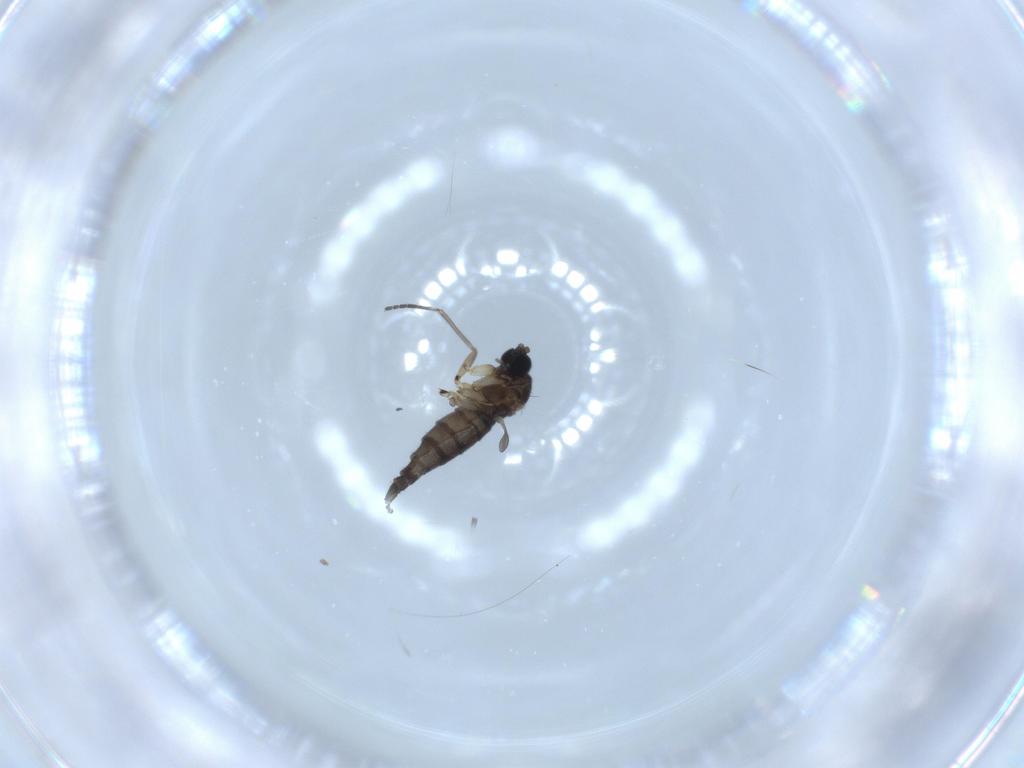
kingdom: Animalia
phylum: Arthropoda
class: Insecta
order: Diptera
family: Sciaridae
